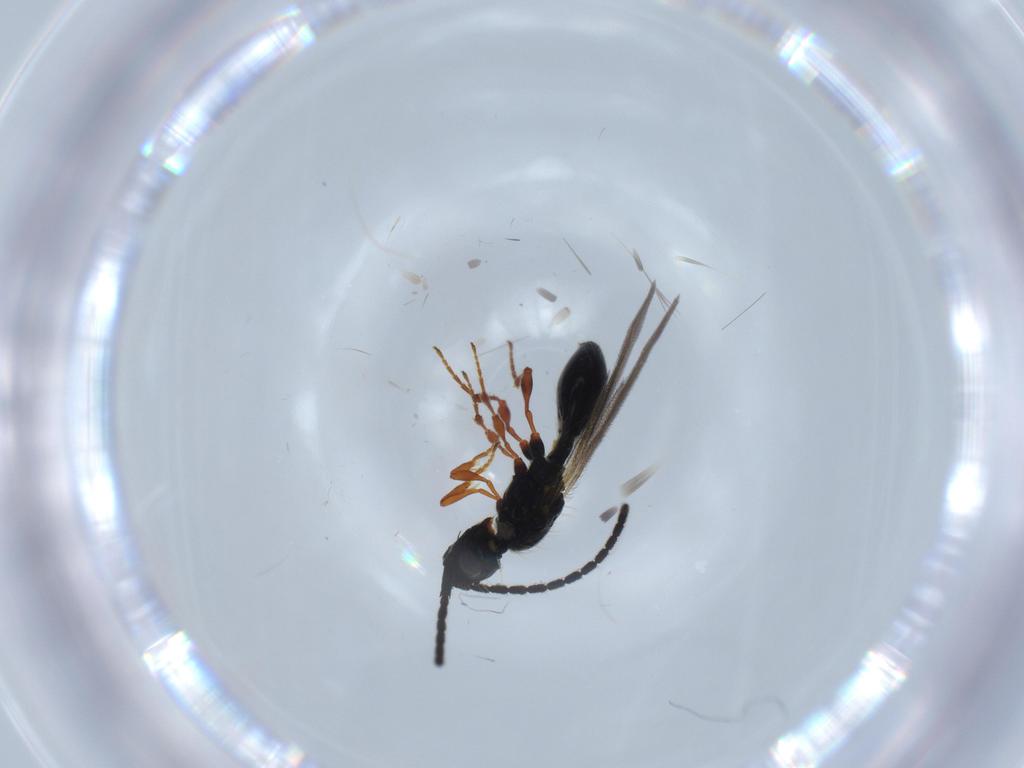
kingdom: Animalia
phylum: Arthropoda
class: Insecta
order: Hymenoptera
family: Diapriidae
